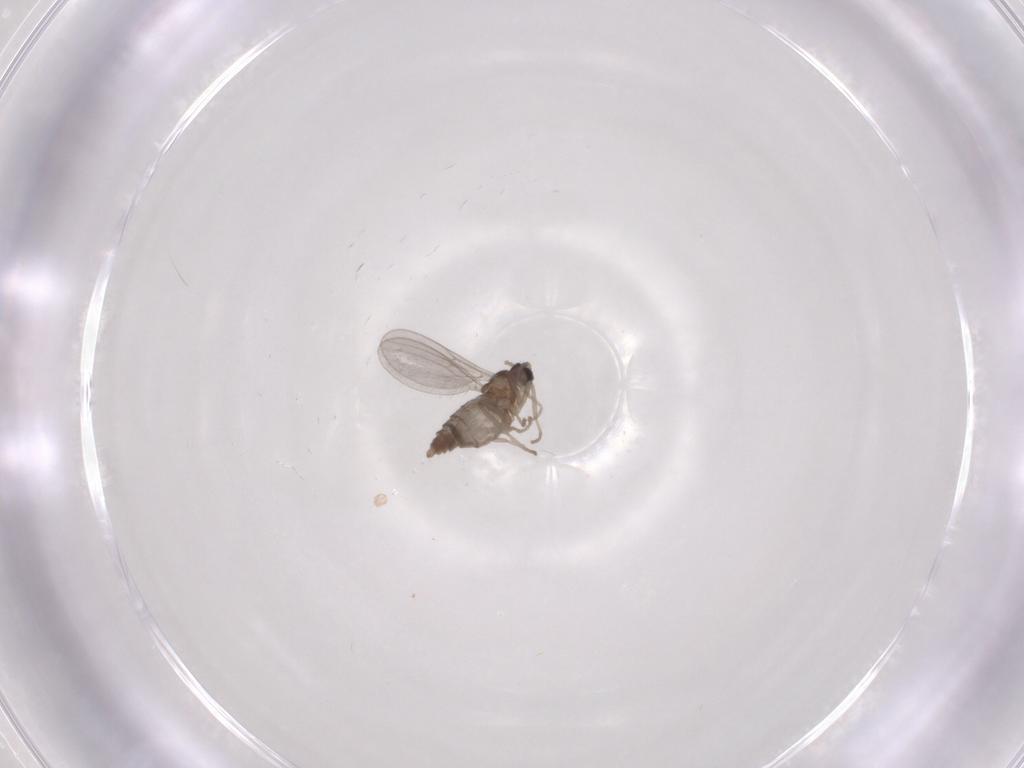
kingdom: Animalia
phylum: Arthropoda
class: Insecta
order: Diptera
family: Cecidomyiidae
